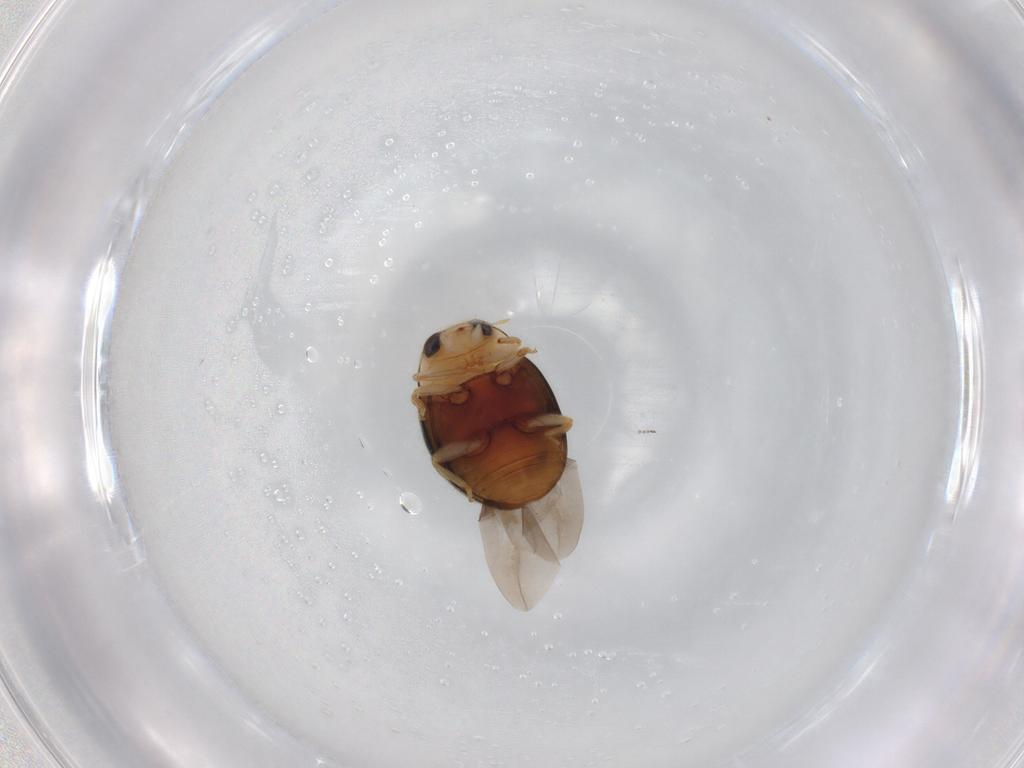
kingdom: Animalia
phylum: Arthropoda
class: Insecta
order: Coleoptera
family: Coccinellidae
